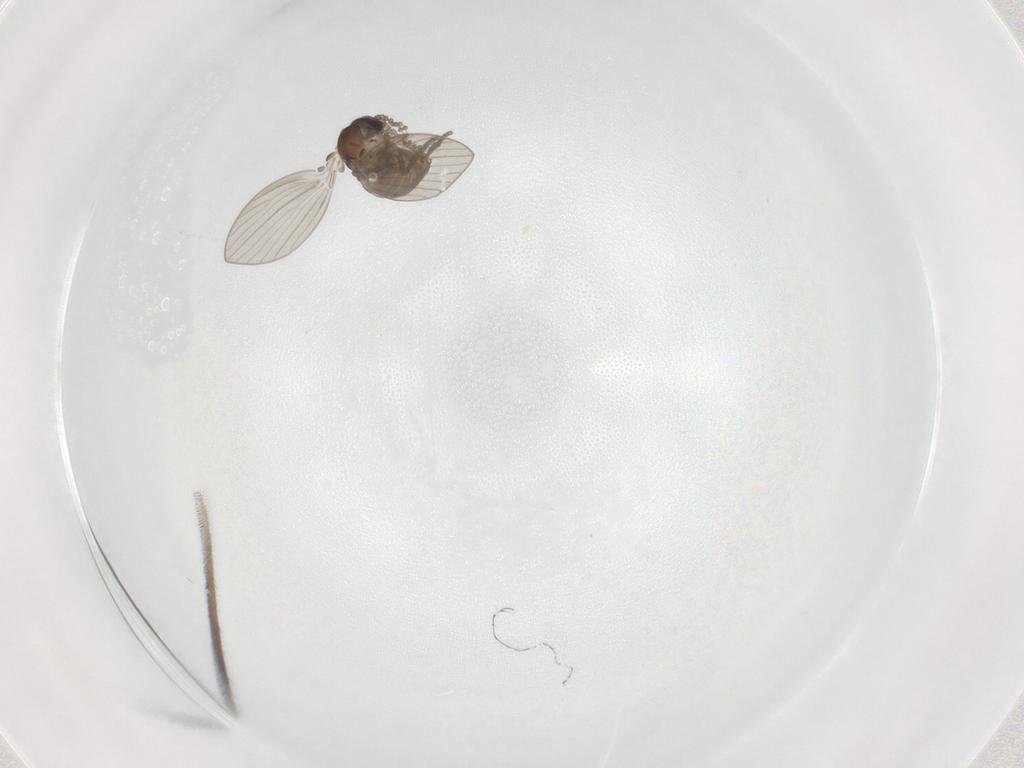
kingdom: Animalia
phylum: Arthropoda
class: Insecta
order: Diptera
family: Psychodidae
